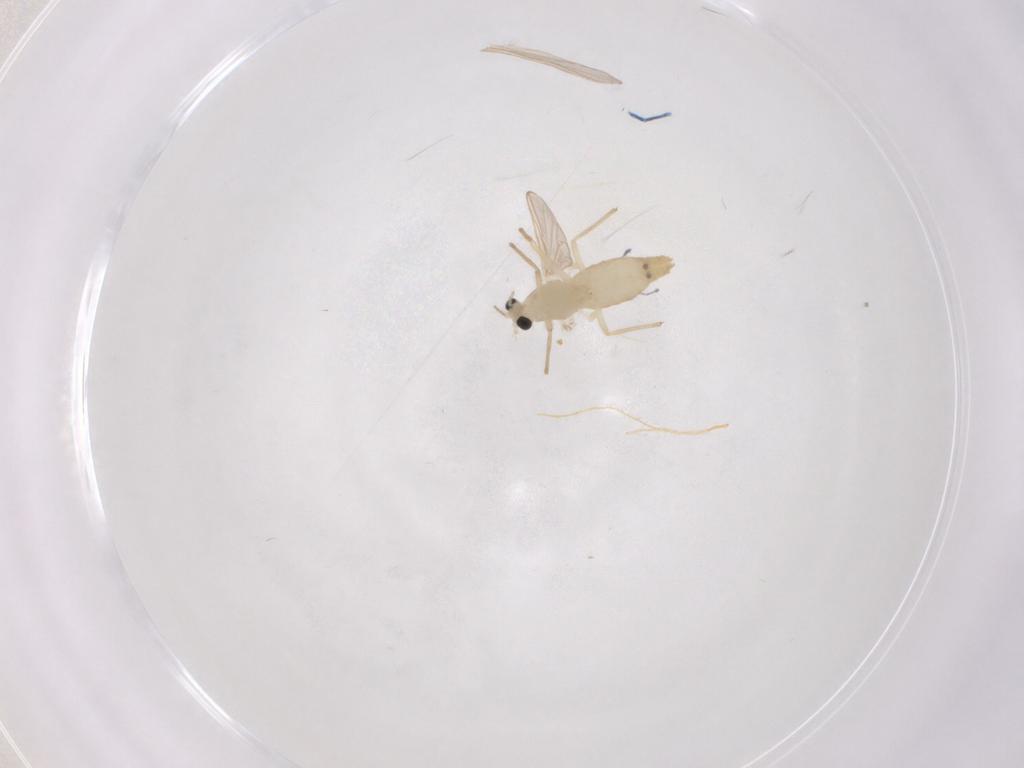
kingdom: Animalia
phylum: Arthropoda
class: Insecta
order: Diptera
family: Chironomidae
